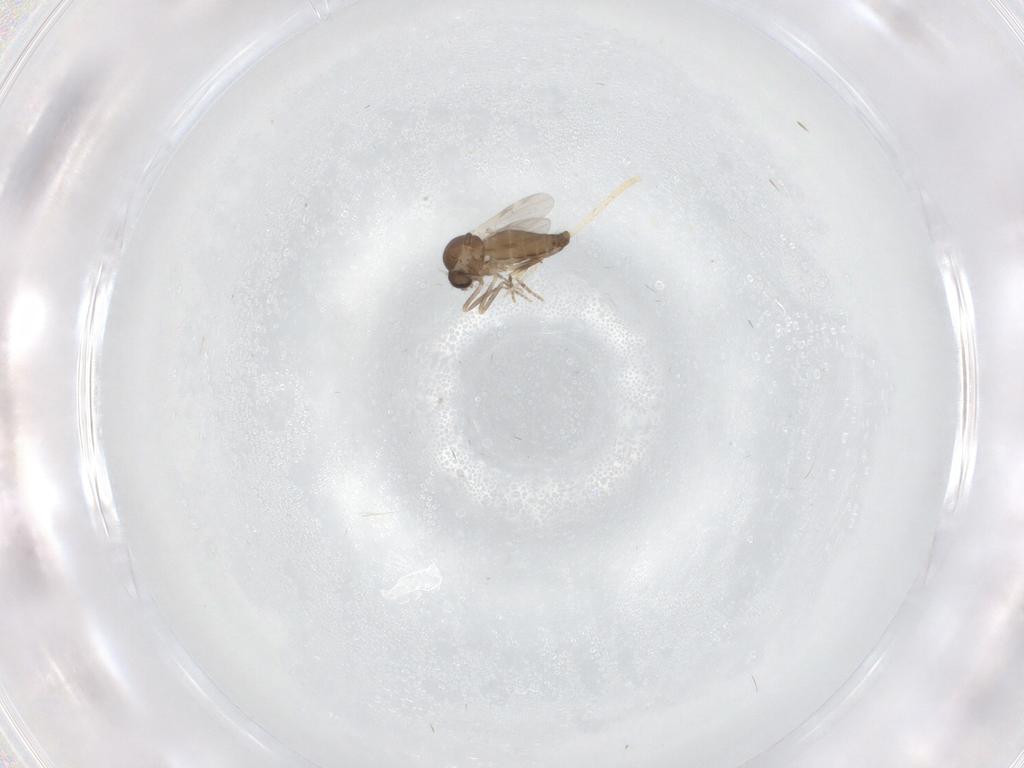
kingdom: Animalia
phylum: Arthropoda
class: Insecta
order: Diptera
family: Ceratopogonidae
